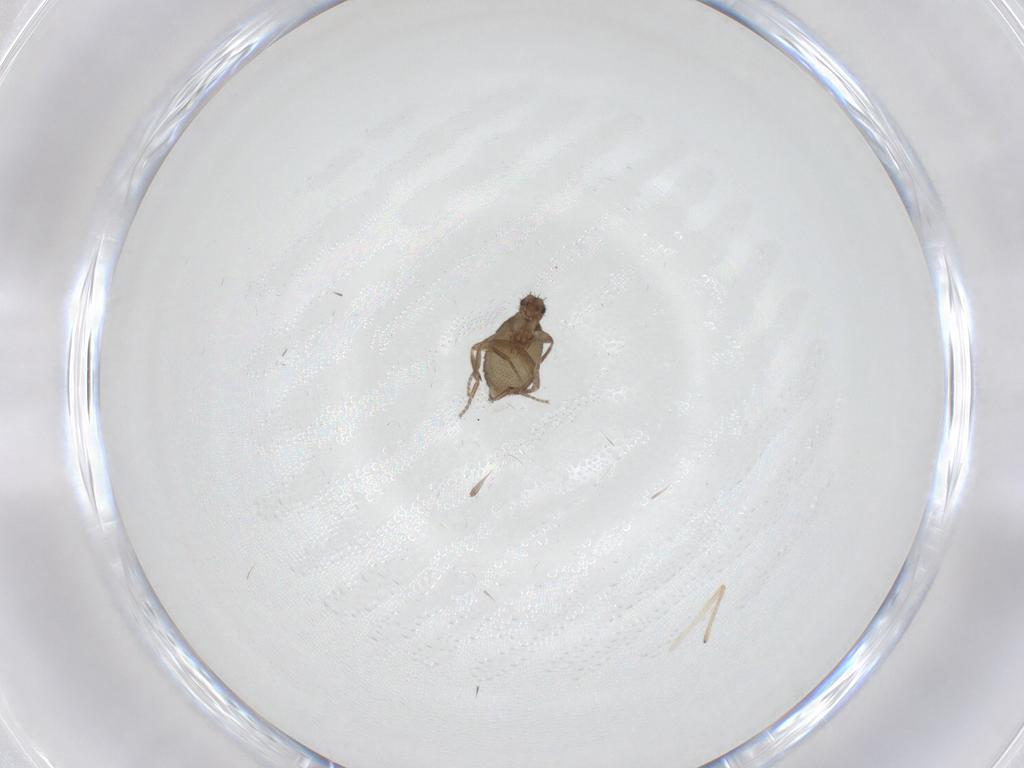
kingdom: Animalia
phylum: Arthropoda
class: Insecta
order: Diptera
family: Chironomidae
